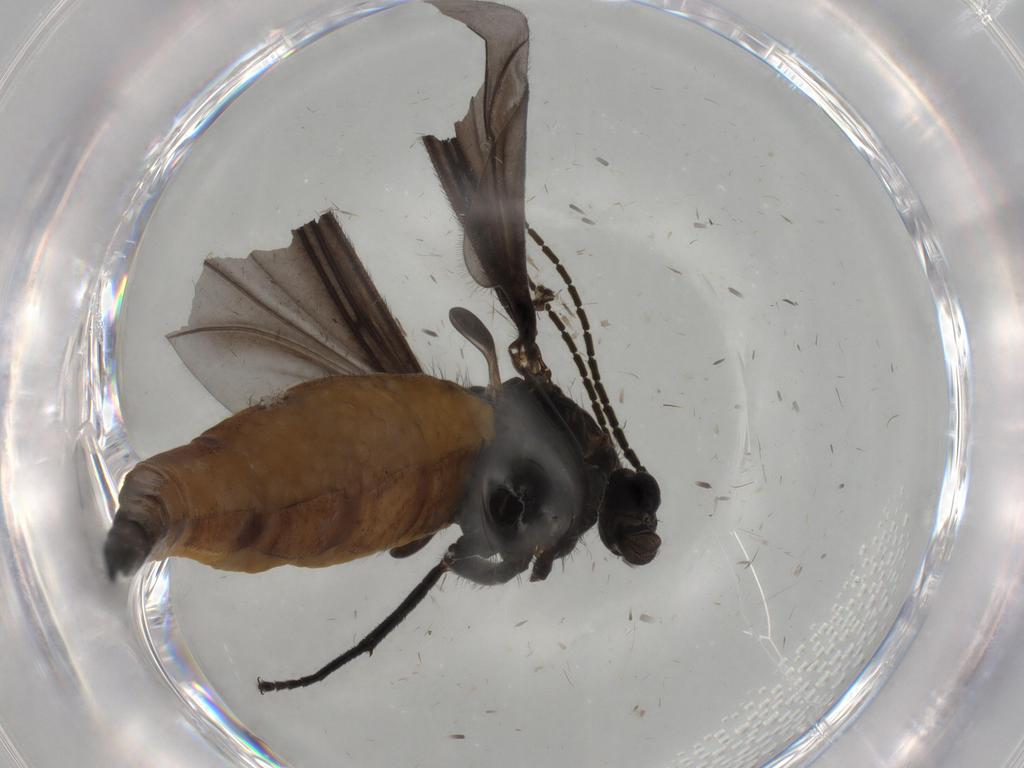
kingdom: Animalia
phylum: Arthropoda
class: Insecta
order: Diptera
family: Sciaridae
